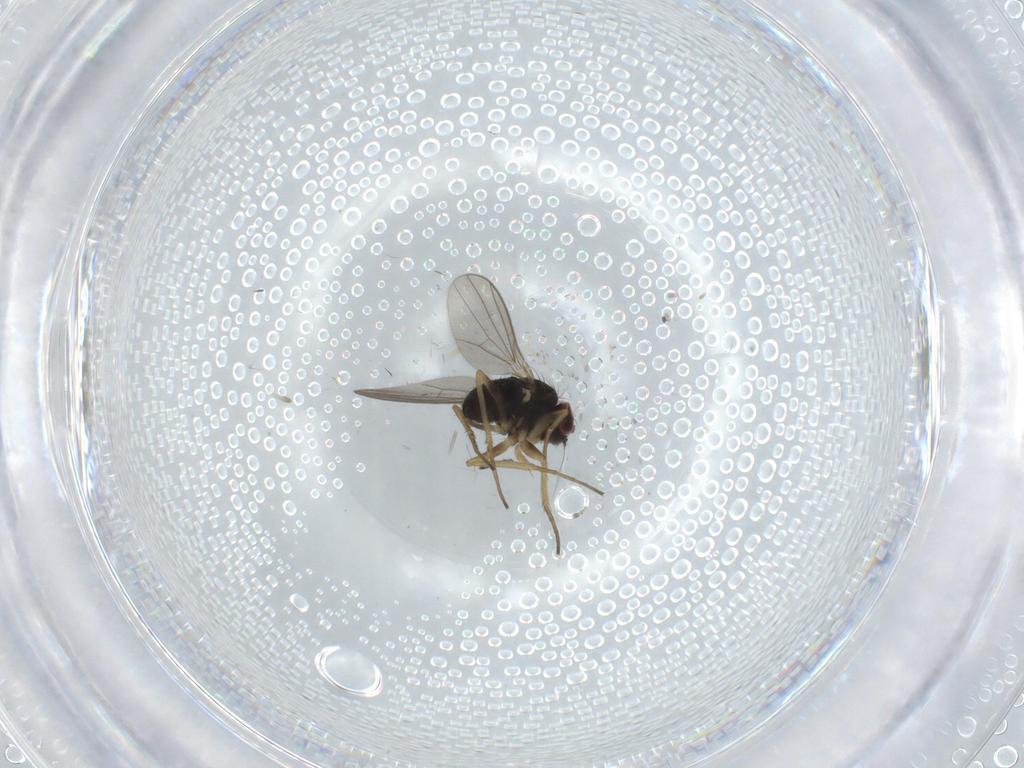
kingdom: Animalia
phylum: Arthropoda
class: Insecta
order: Diptera
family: Dolichopodidae
